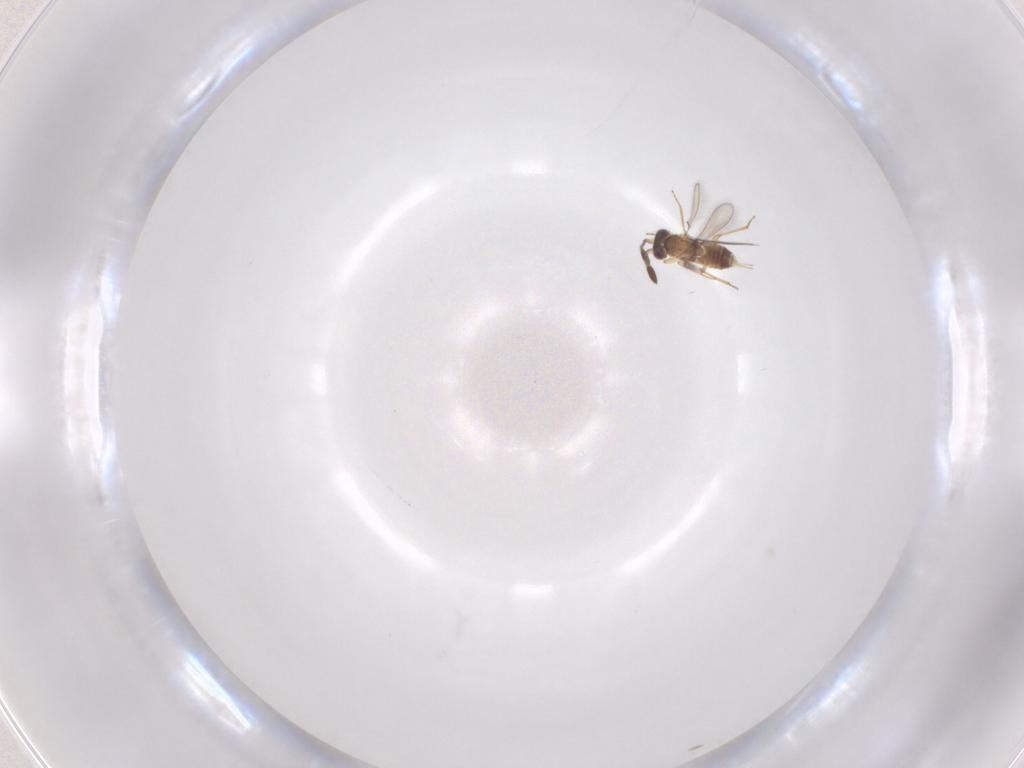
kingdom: Animalia
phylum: Arthropoda
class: Insecta
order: Hymenoptera
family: Mymaridae
